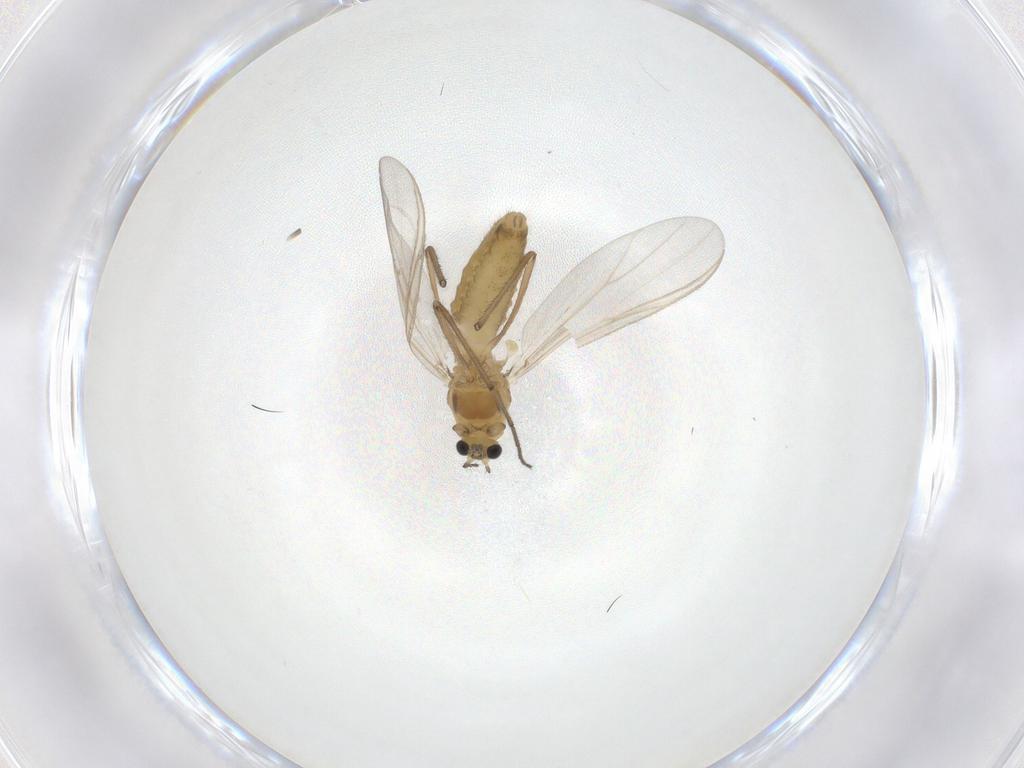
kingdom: Animalia
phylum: Arthropoda
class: Insecta
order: Diptera
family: Chironomidae
